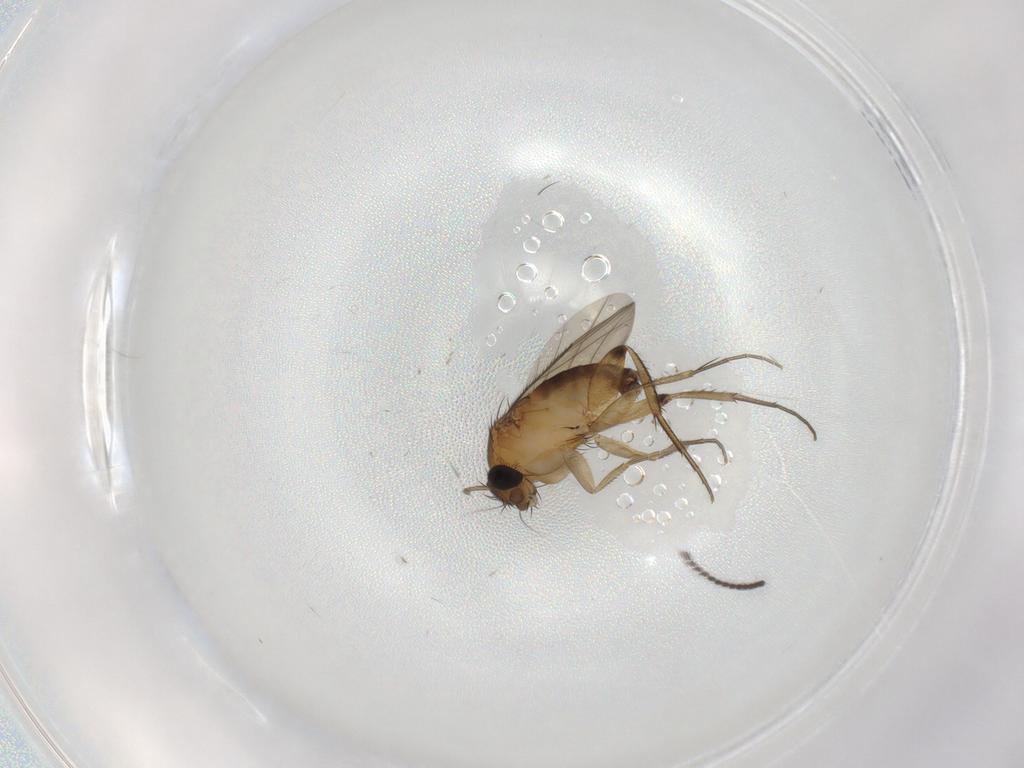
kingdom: Animalia
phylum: Arthropoda
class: Insecta
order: Diptera
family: Phoridae
